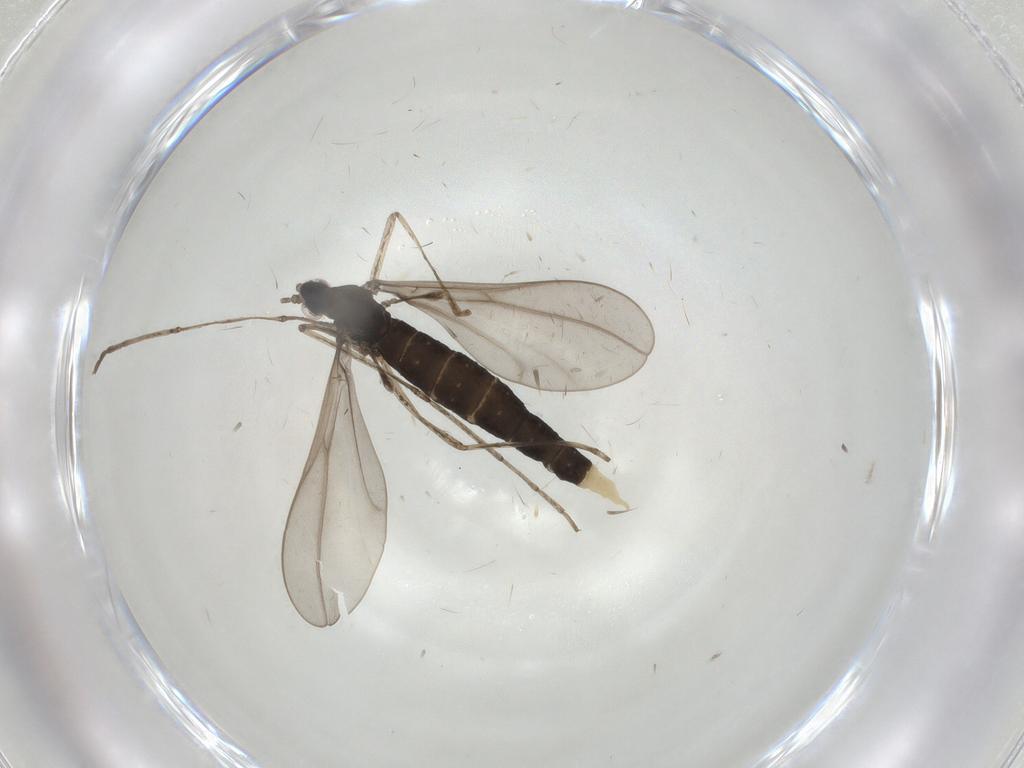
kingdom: Animalia
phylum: Arthropoda
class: Insecta
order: Diptera
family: Cecidomyiidae
